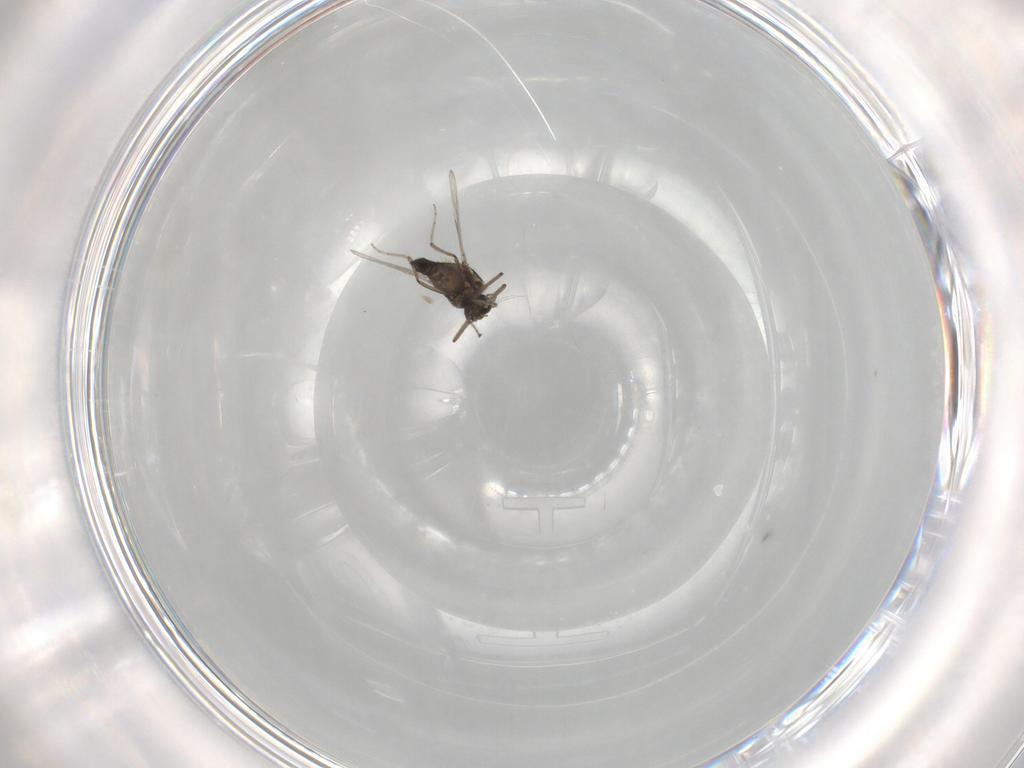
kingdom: Animalia
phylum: Arthropoda
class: Insecta
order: Diptera
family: Ceratopogonidae
